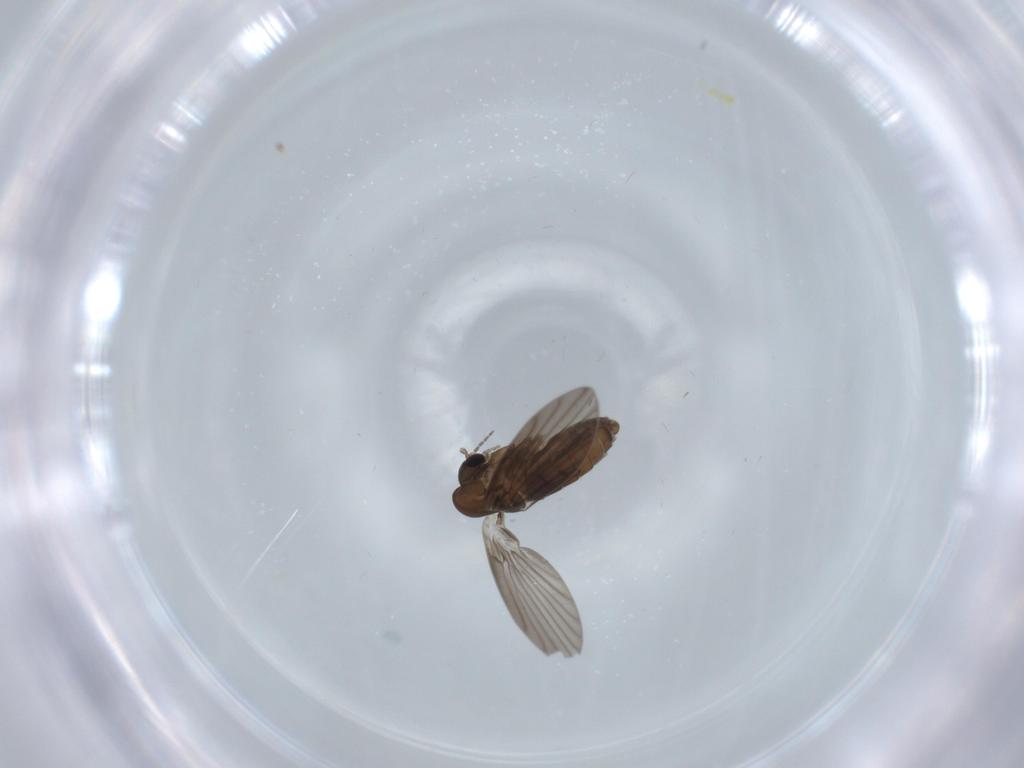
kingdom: Animalia
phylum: Arthropoda
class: Insecta
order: Diptera
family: Psychodidae
